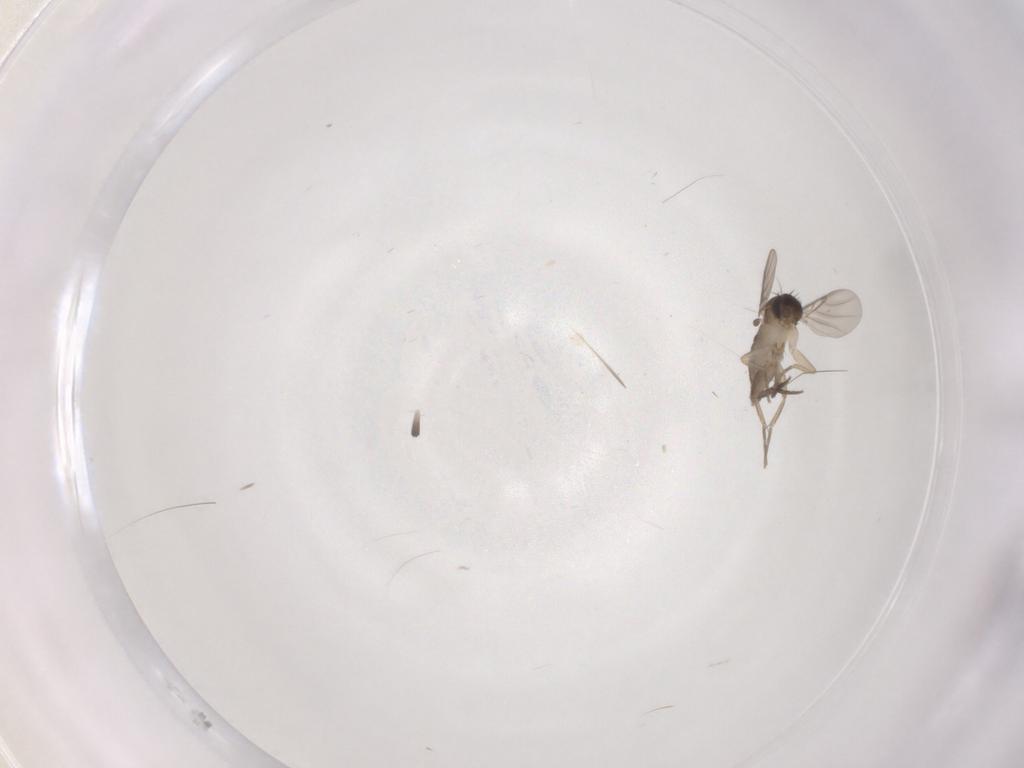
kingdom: Animalia
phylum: Arthropoda
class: Insecta
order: Diptera
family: Phoridae
